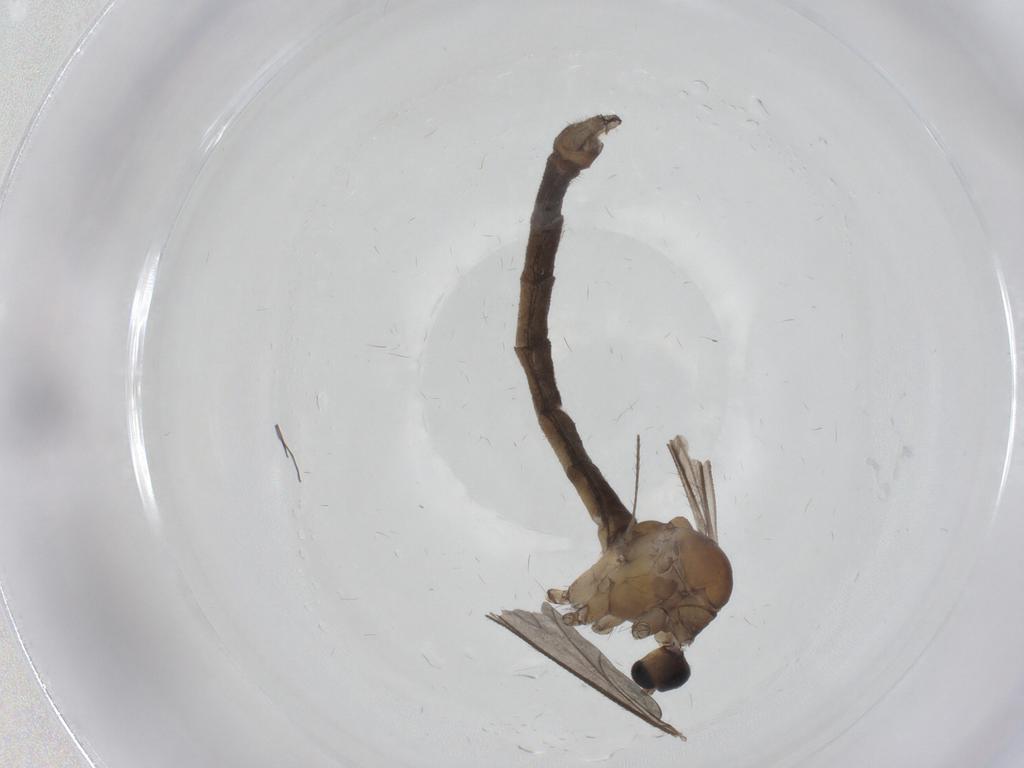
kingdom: Animalia
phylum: Arthropoda
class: Insecta
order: Diptera
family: Limoniidae
